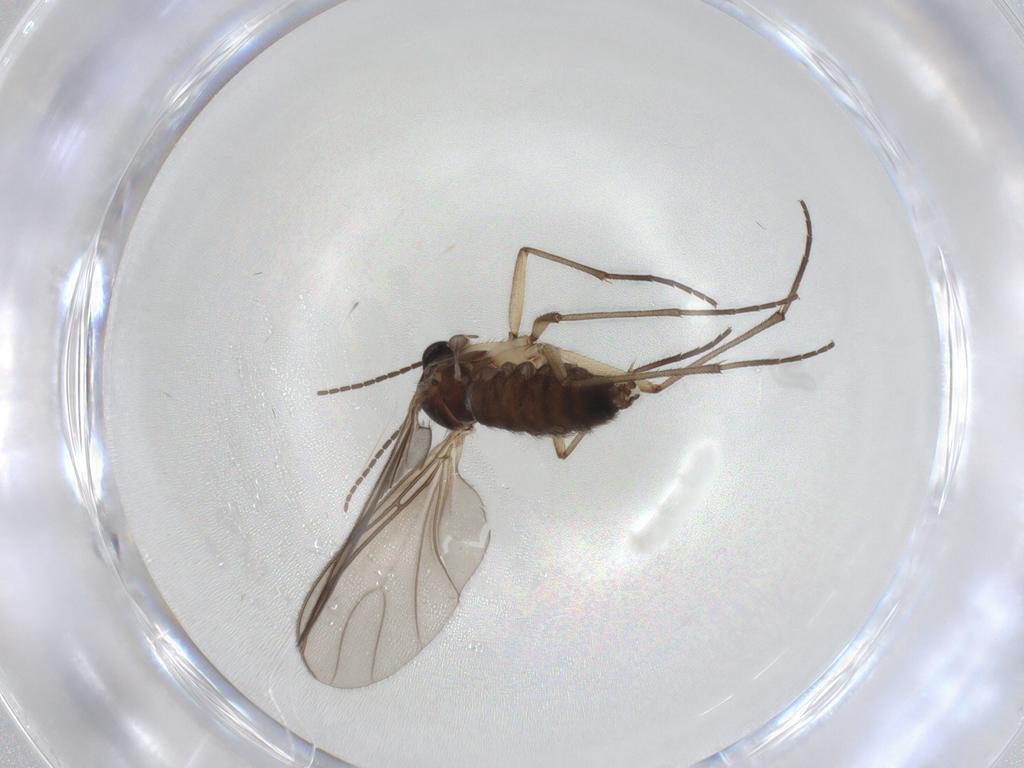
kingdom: Animalia
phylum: Arthropoda
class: Insecta
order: Diptera
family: Sciaridae
